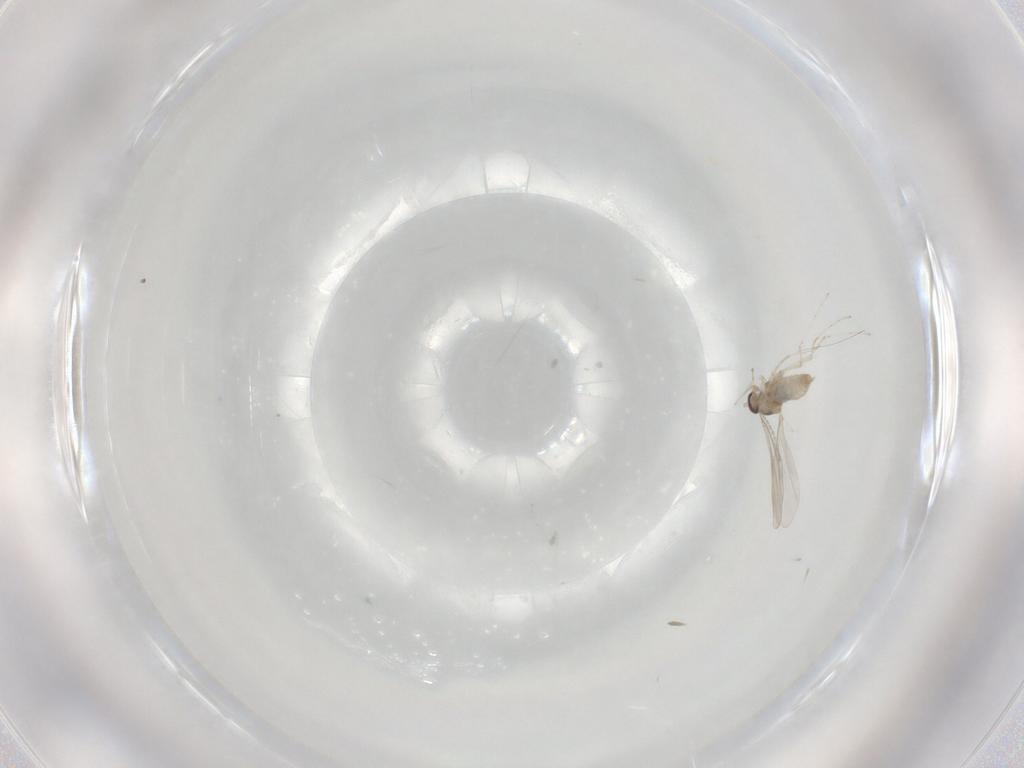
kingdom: Animalia
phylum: Arthropoda
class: Insecta
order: Diptera
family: Cecidomyiidae
